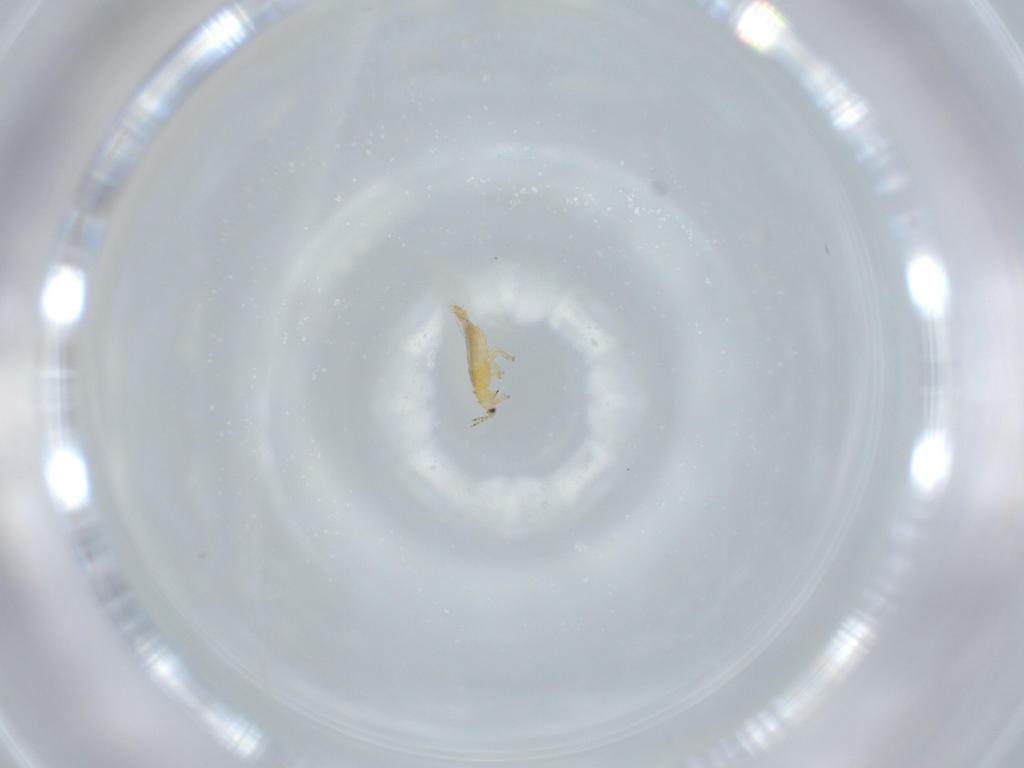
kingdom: Animalia
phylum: Arthropoda
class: Insecta
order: Thysanoptera
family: Thripidae
